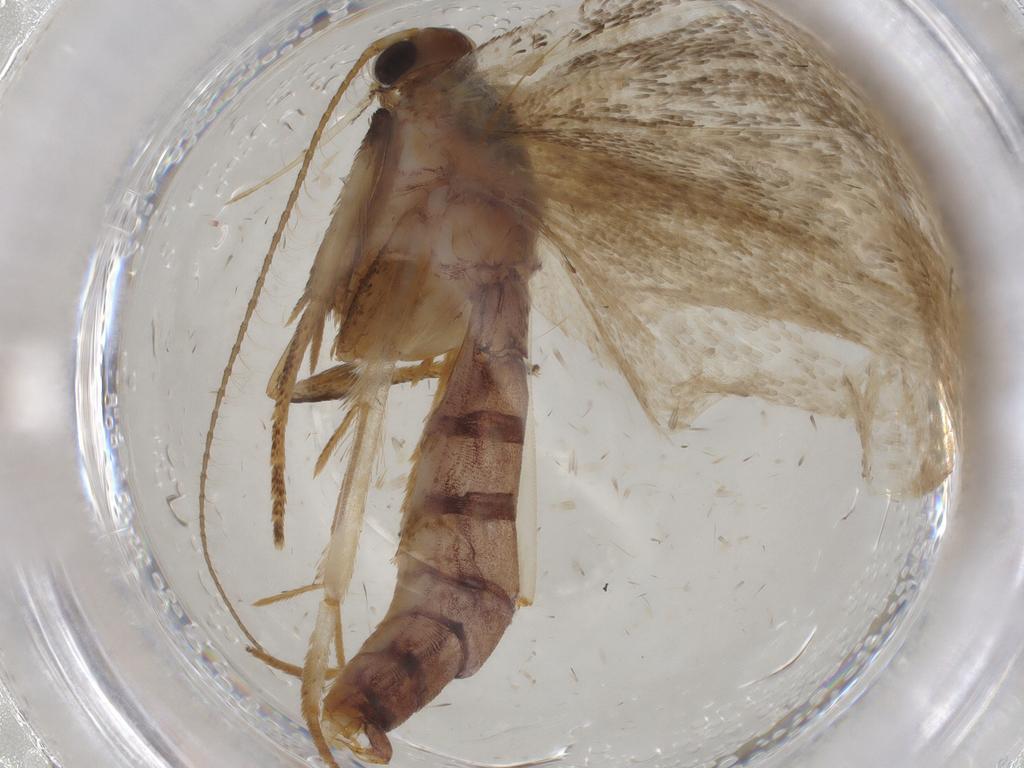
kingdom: Animalia
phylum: Arthropoda
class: Insecta
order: Lepidoptera
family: Oecophoridae
